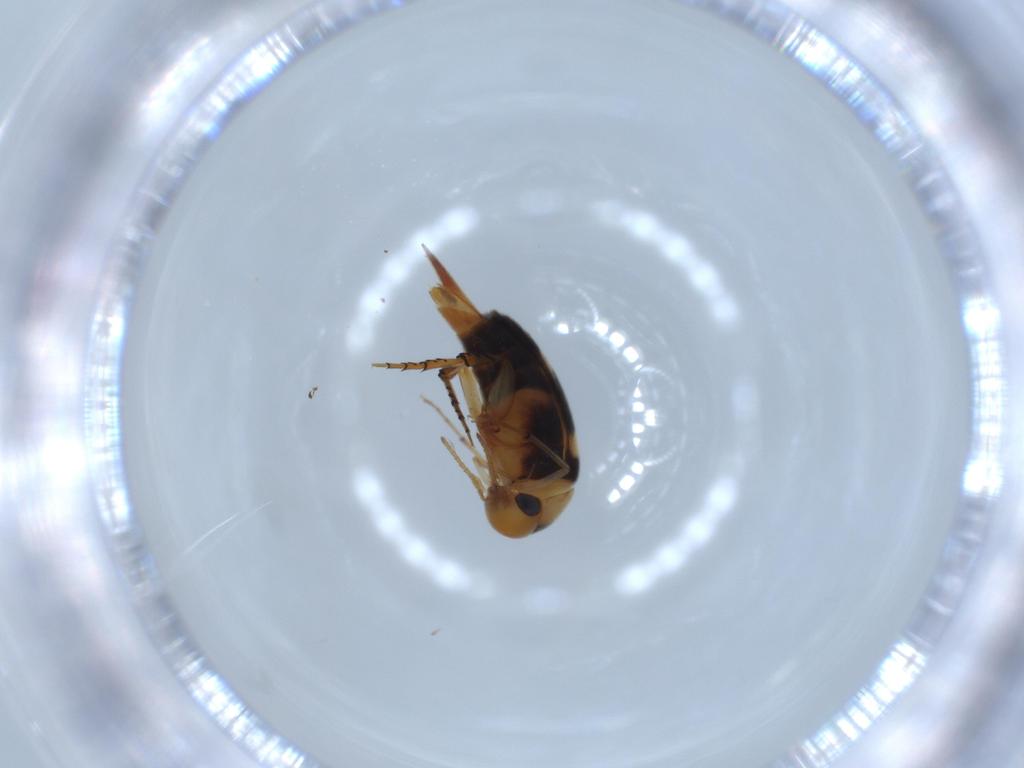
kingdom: Animalia
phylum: Arthropoda
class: Insecta
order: Coleoptera
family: Mordellidae
